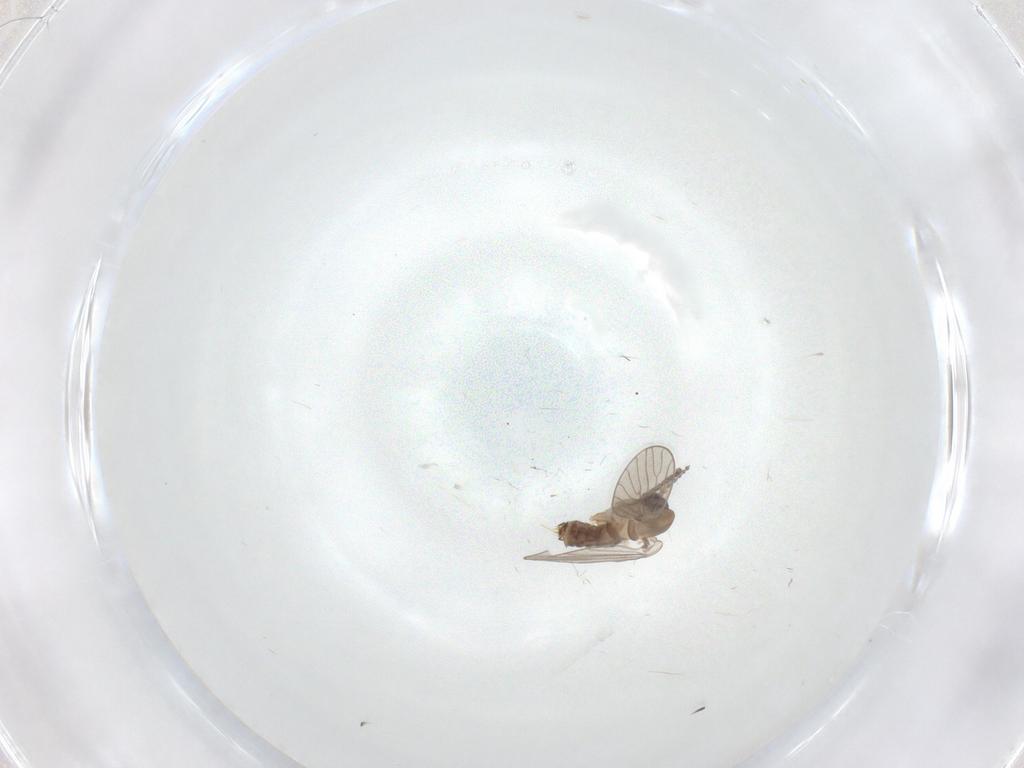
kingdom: Animalia
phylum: Arthropoda
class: Insecta
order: Diptera
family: Psychodidae
